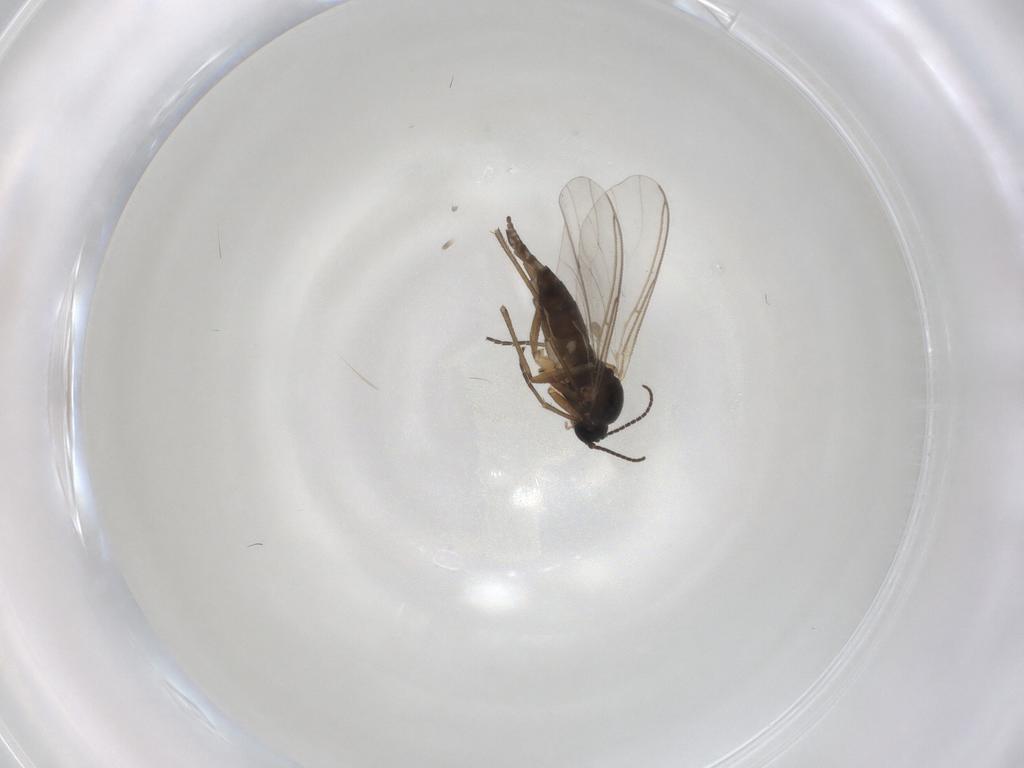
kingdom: Animalia
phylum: Arthropoda
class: Insecta
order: Diptera
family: Sciaridae
